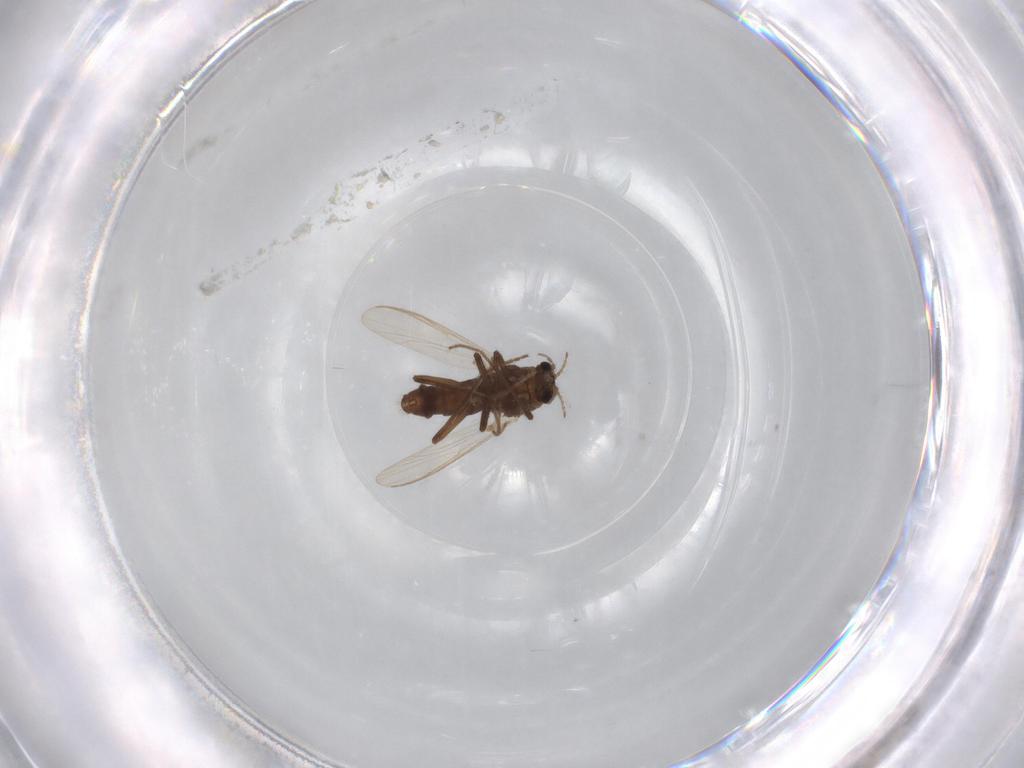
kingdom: Animalia
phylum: Arthropoda
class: Insecta
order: Diptera
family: Chironomidae
